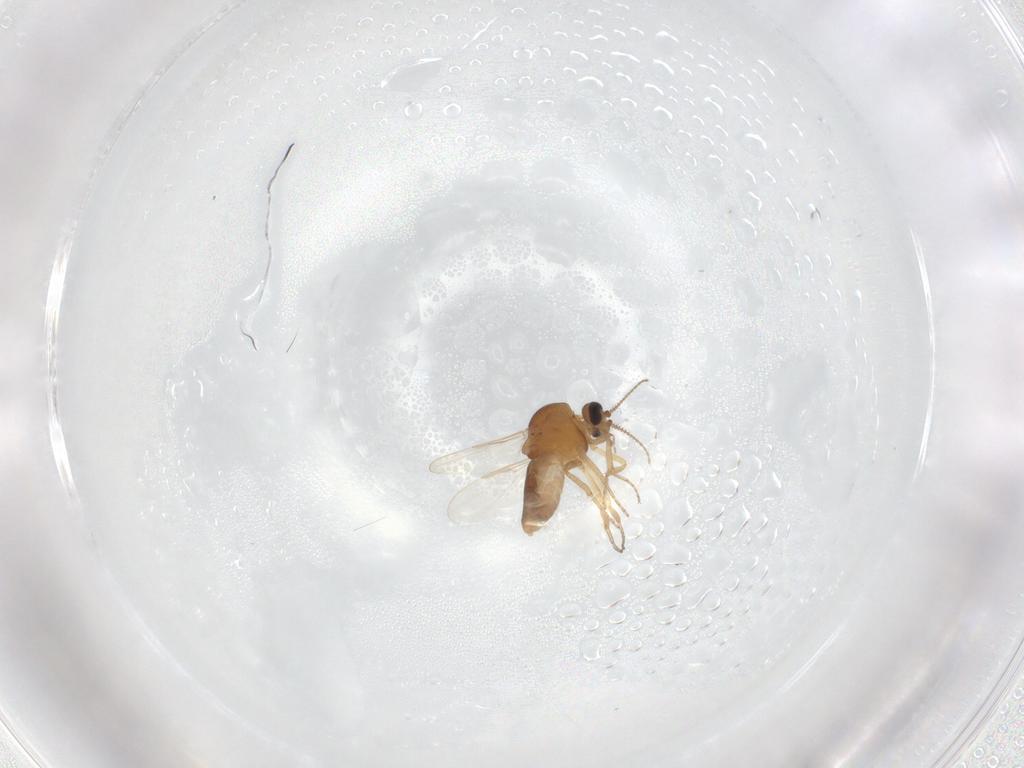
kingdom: Animalia
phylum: Arthropoda
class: Insecta
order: Diptera
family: Ceratopogonidae
